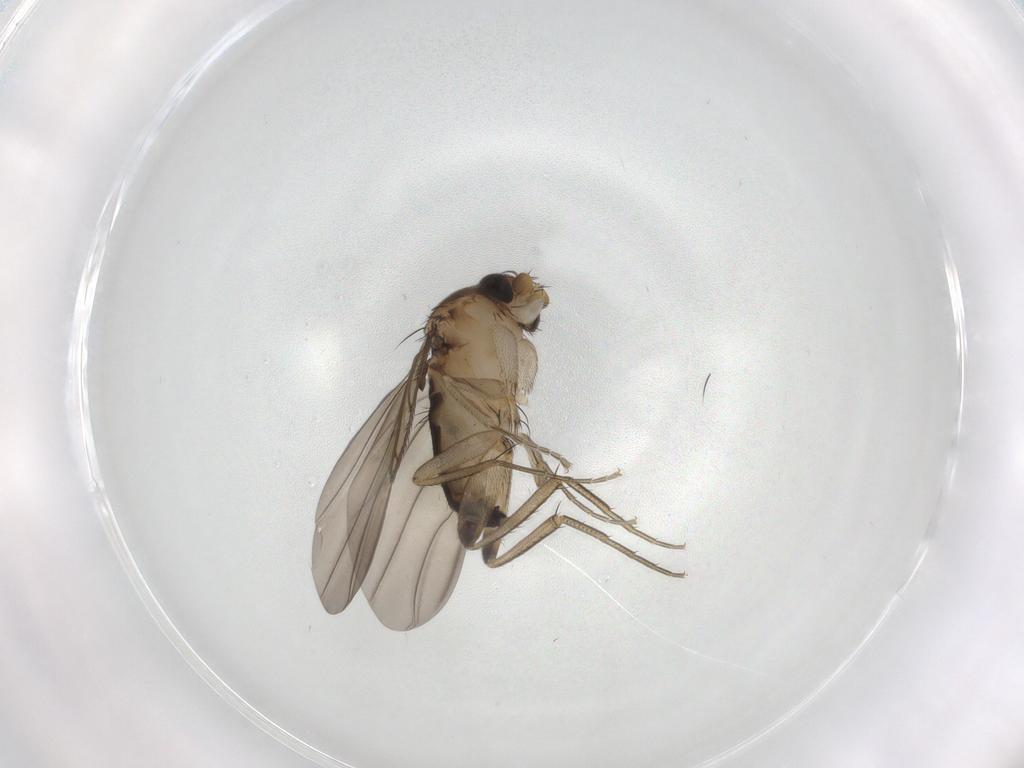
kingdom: Animalia
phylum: Arthropoda
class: Insecta
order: Diptera
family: Phoridae
